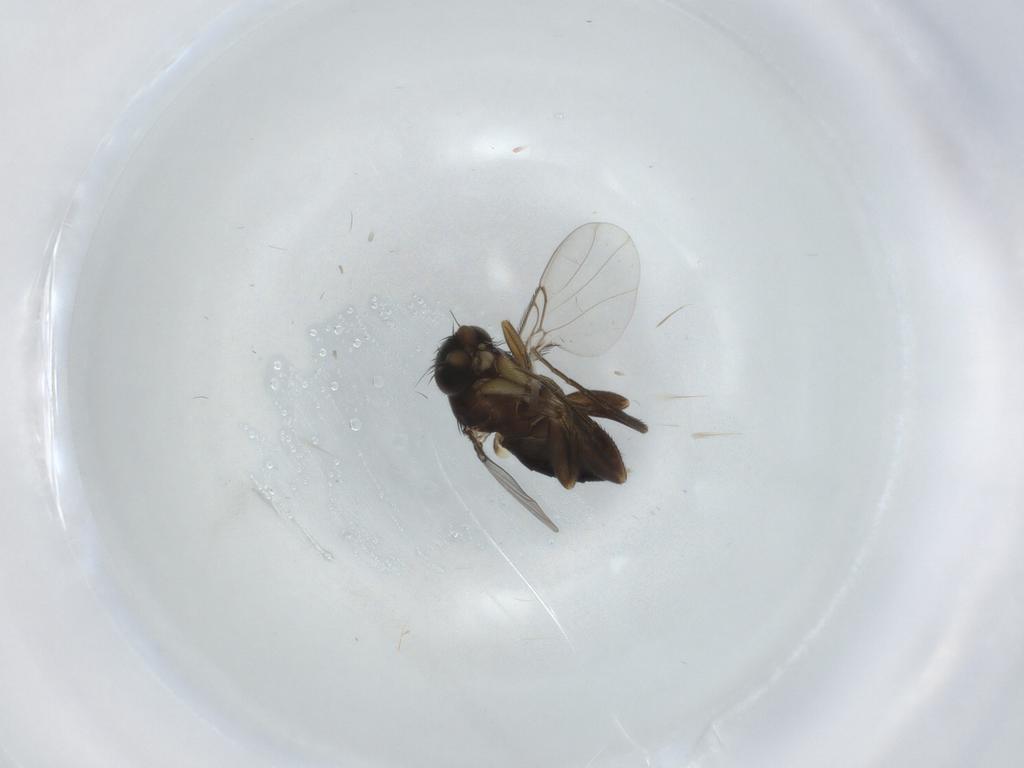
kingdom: Animalia
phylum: Arthropoda
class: Insecta
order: Diptera
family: Phoridae
